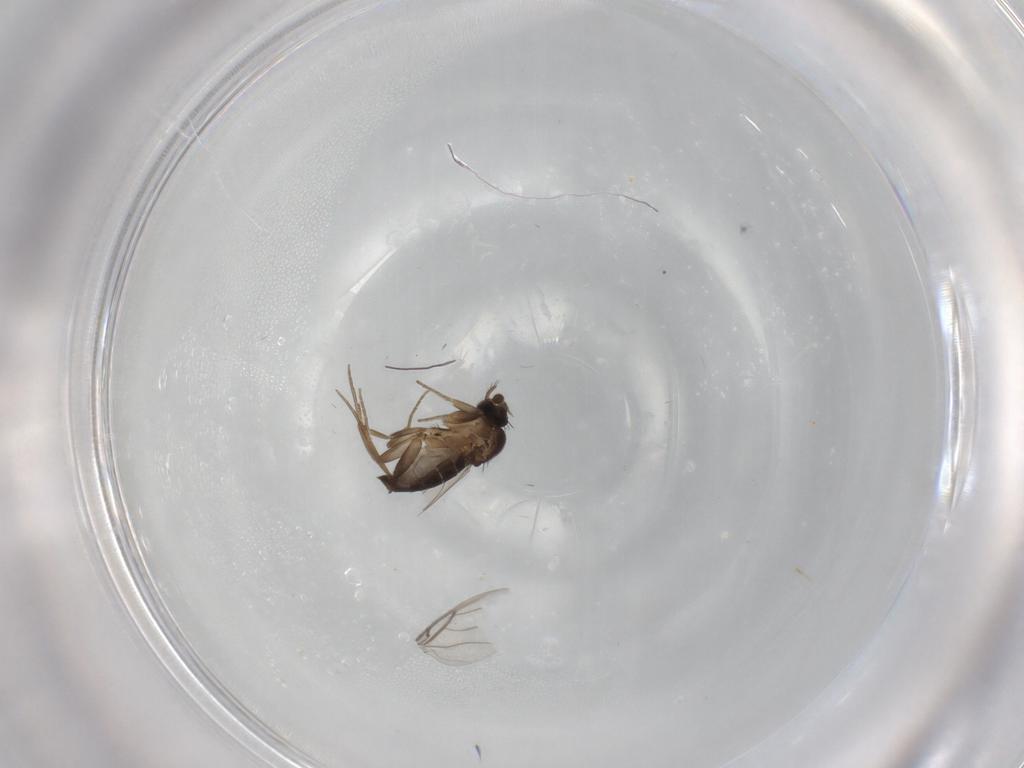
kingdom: Animalia
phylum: Arthropoda
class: Insecta
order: Diptera
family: Phoridae
